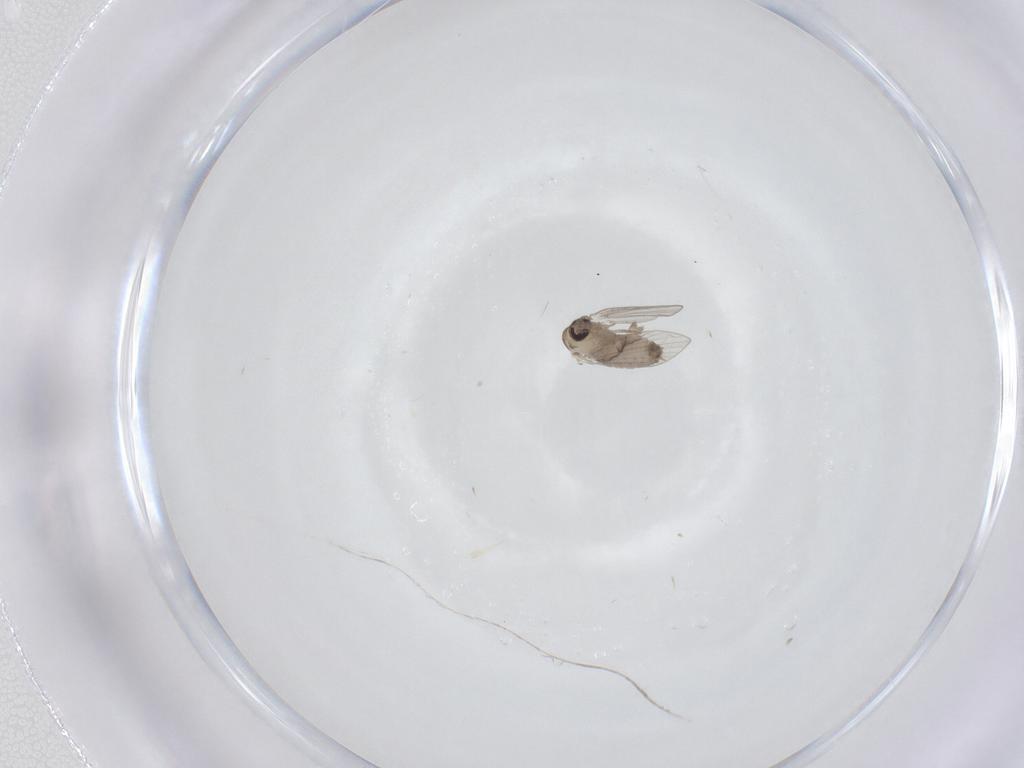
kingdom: Animalia
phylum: Arthropoda
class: Insecta
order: Diptera
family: Psychodidae
